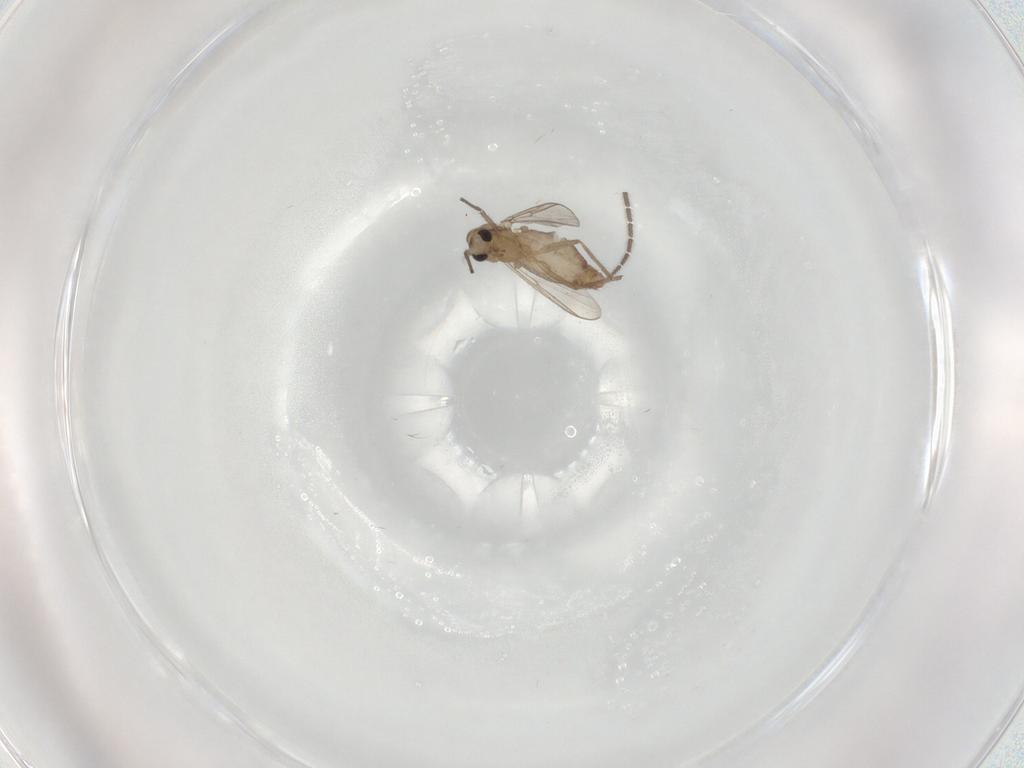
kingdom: Animalia
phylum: Arthropoda
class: Insecta
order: Diptera
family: Chironomidae
